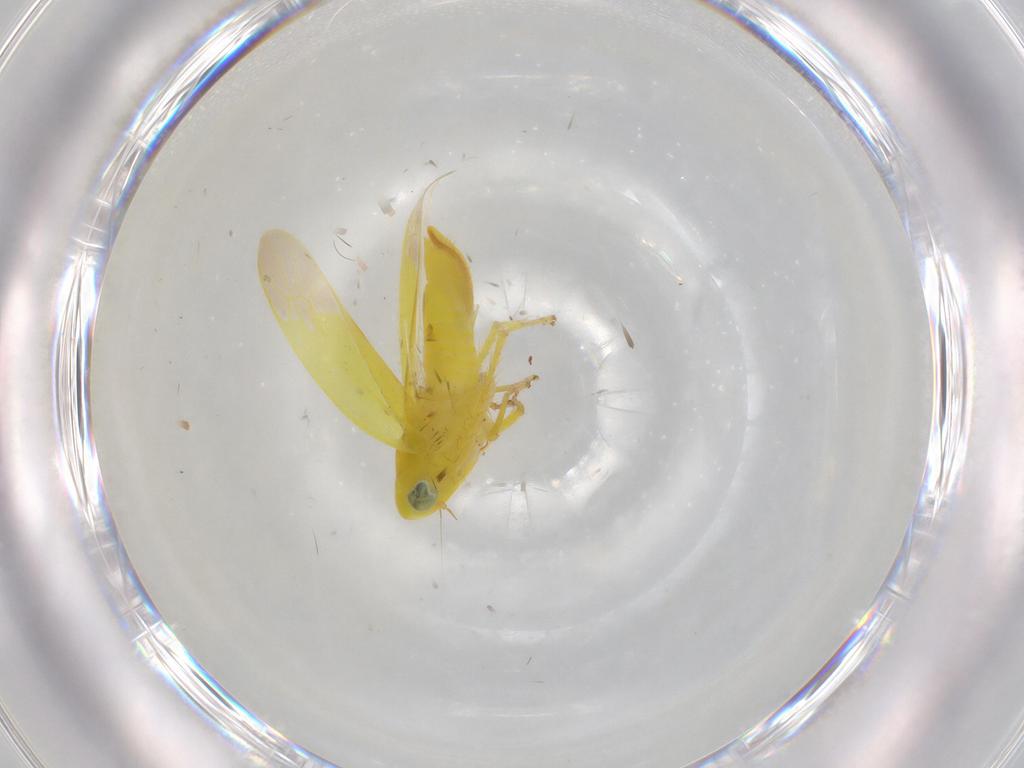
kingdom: Animalia
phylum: Arthropoda
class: Insecta
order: Hemiptera
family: Cicadellidae
